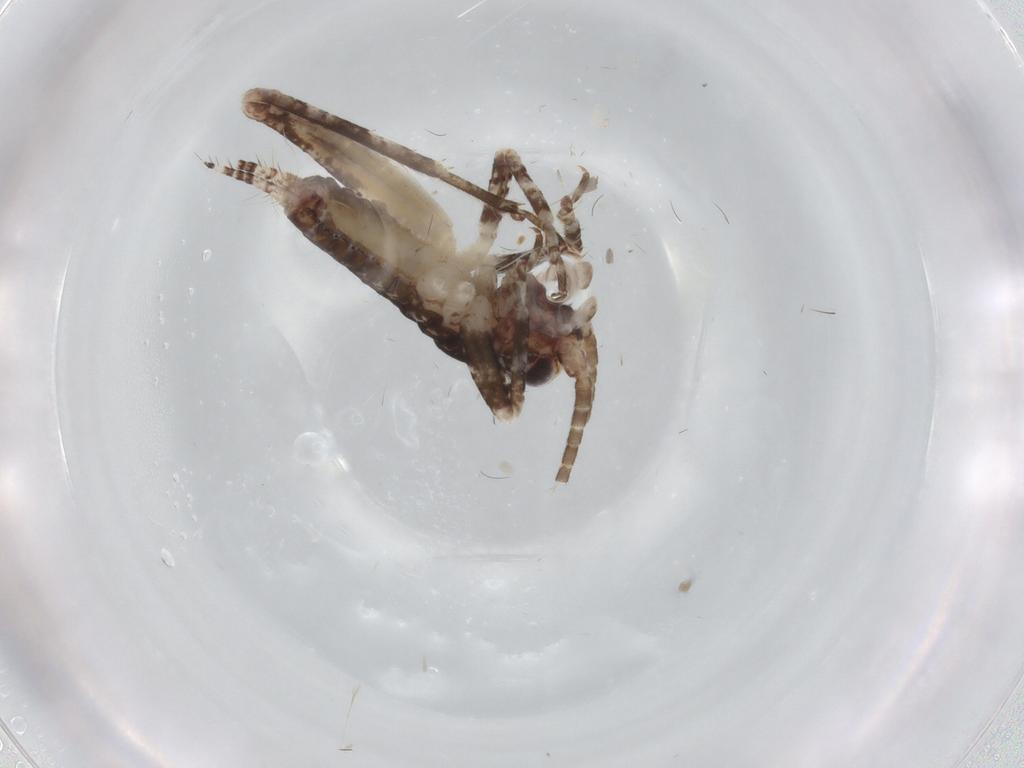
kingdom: Animalia
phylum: Arthropoda
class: Insecta
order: Orthoptera
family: Gryllidae
